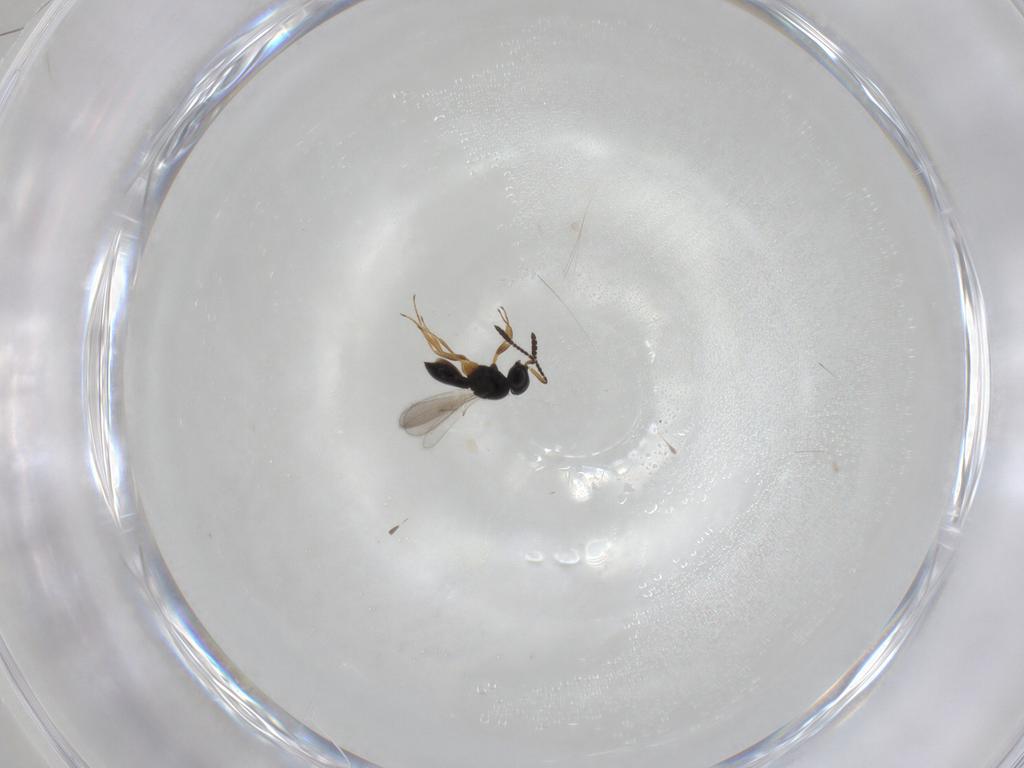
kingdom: Animalia
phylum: Arthropoda
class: Insecta
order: Hymenoptera
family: Scelionidae
